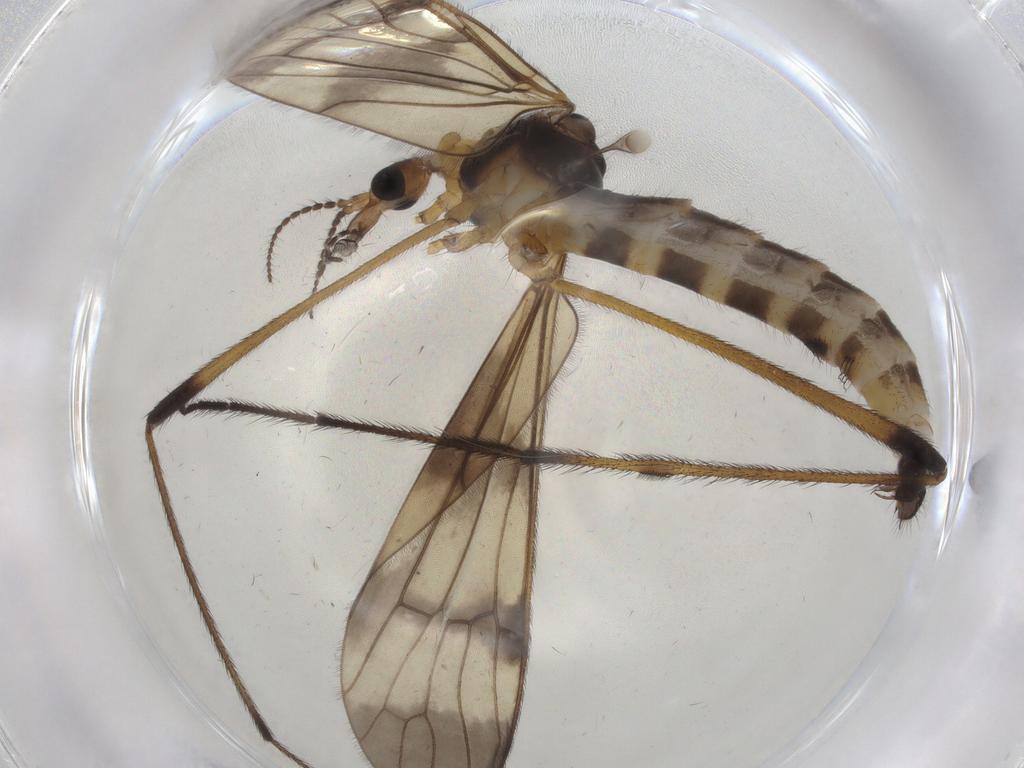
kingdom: Animalia
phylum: Arthropoda
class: Insecta
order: Diptera
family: Limoniidae
